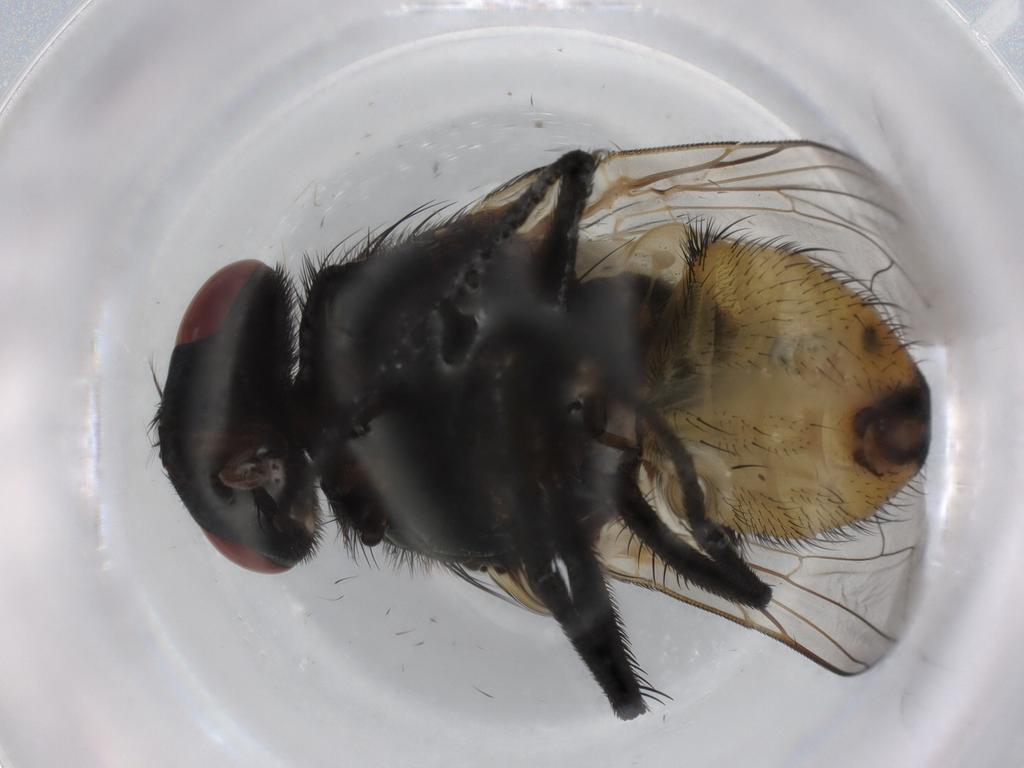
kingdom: Animalia
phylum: Arthropoda
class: Insecta
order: Diptera
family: Muscidae
